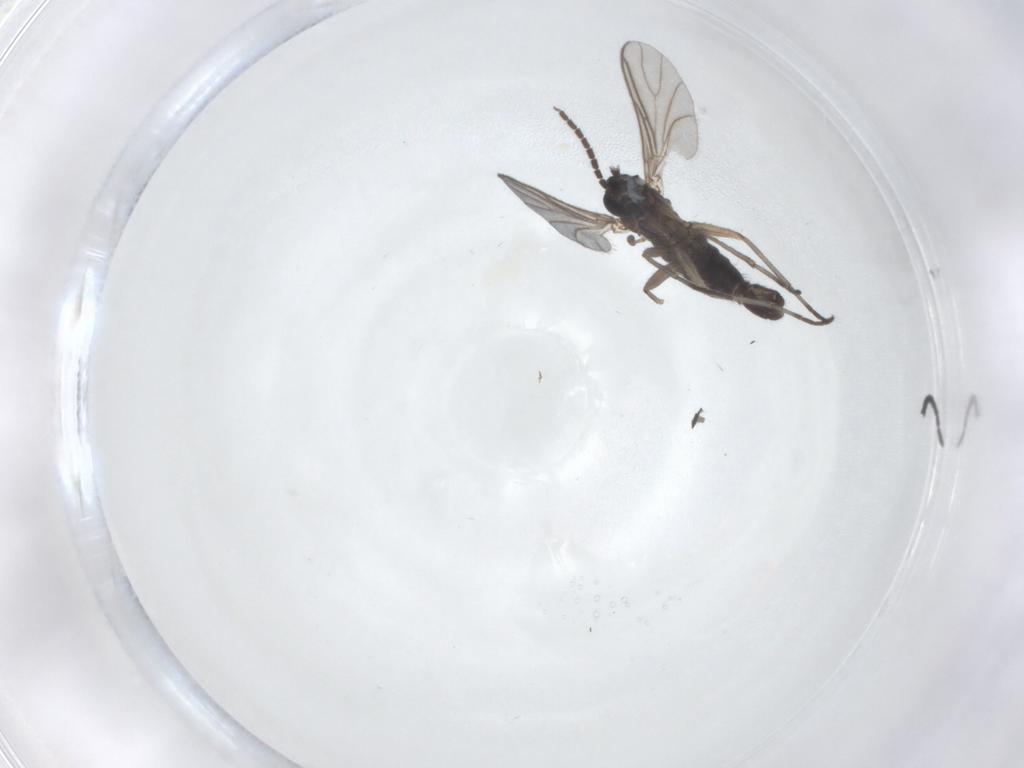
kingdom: Animalia
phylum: Arthropoda
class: Insecta
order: Diptera
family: Sciaridae
